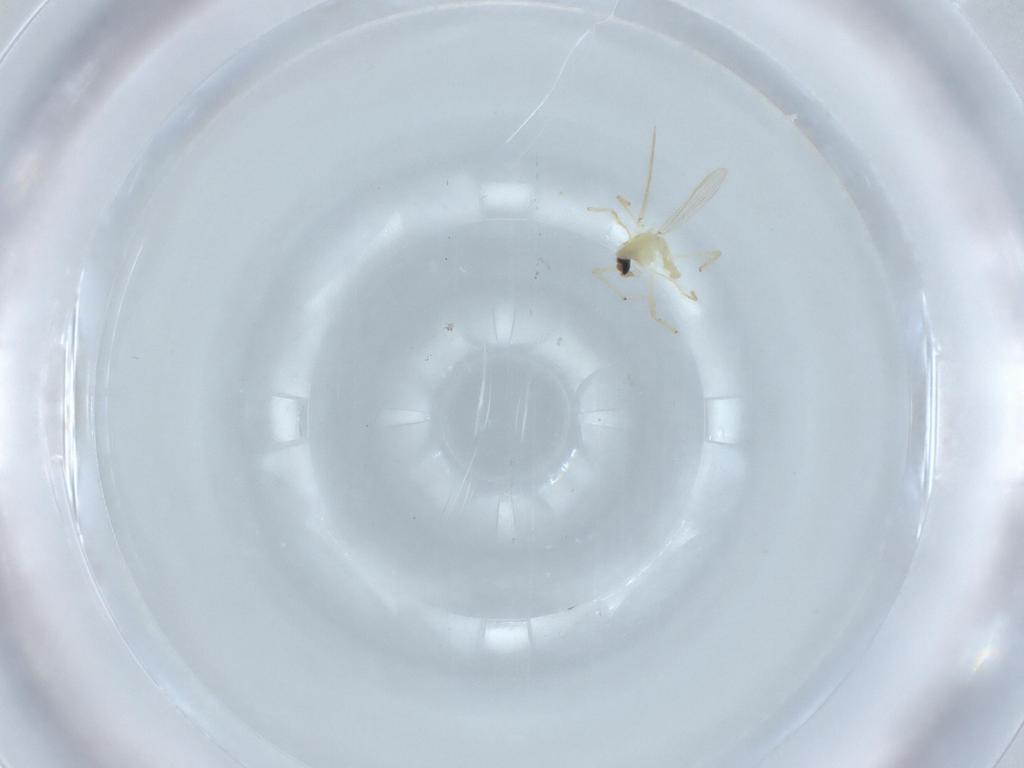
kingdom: Animalia
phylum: Arthropoda
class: Insecta
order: Diptera
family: Chironomidae
